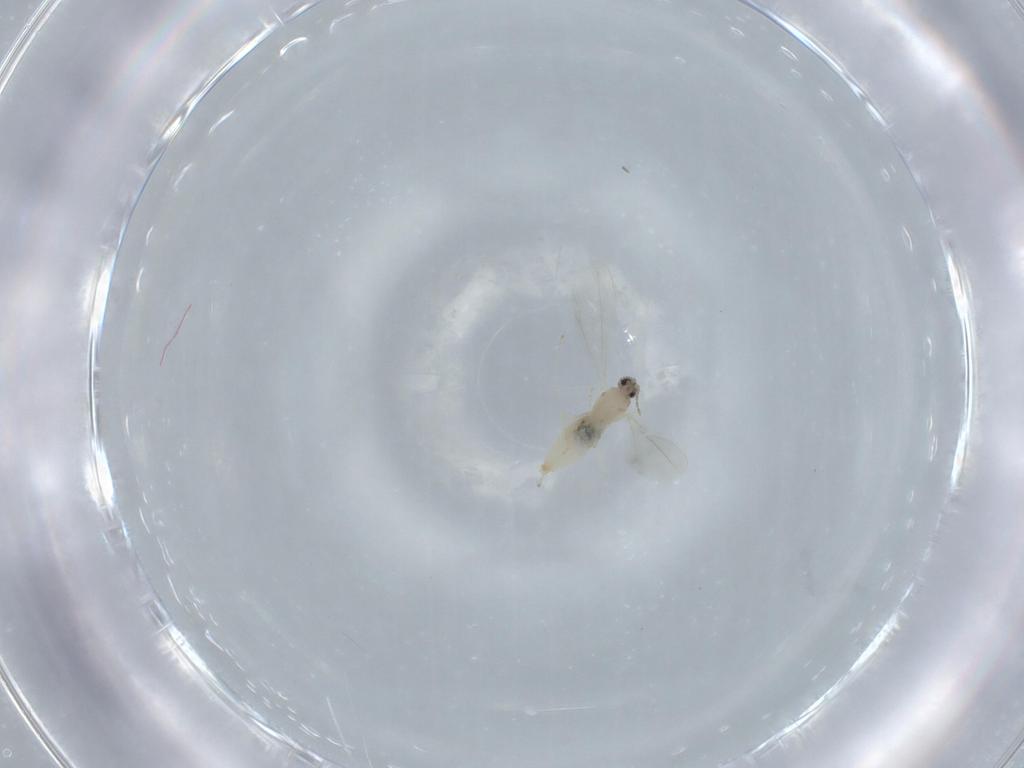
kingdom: Animalia
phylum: Arthropoda
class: Insecta
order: Diptera
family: Cecidomyiidae
